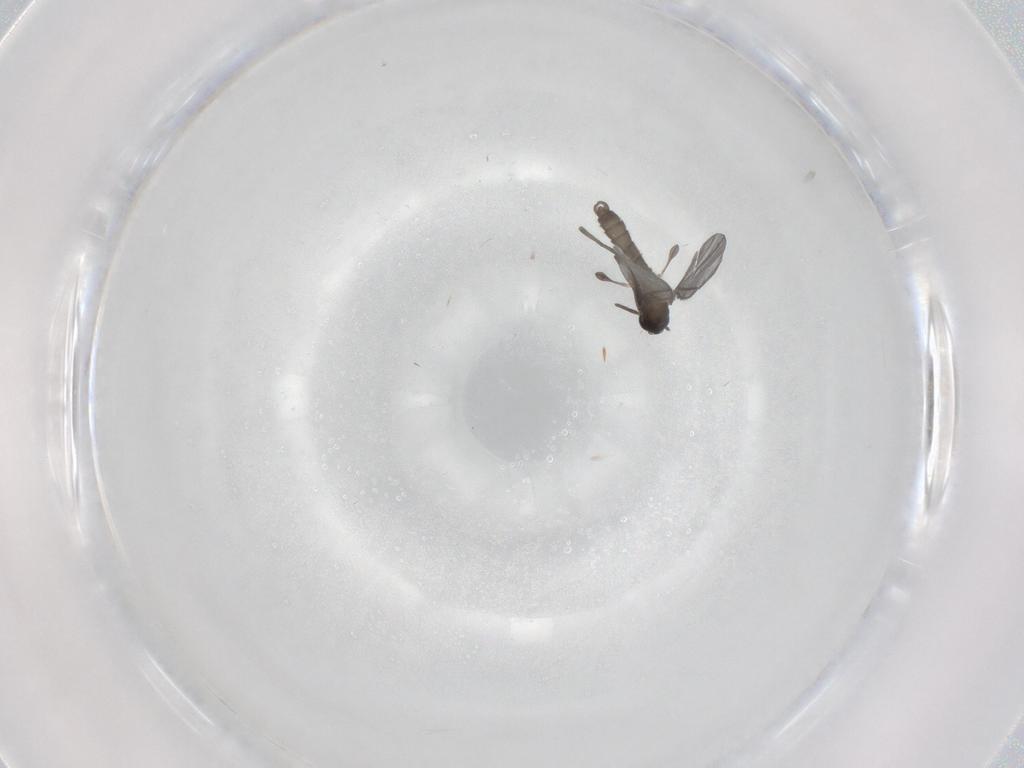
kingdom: Animalia
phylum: Arthropoda
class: Insecta
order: Diptera
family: Sciaridae
